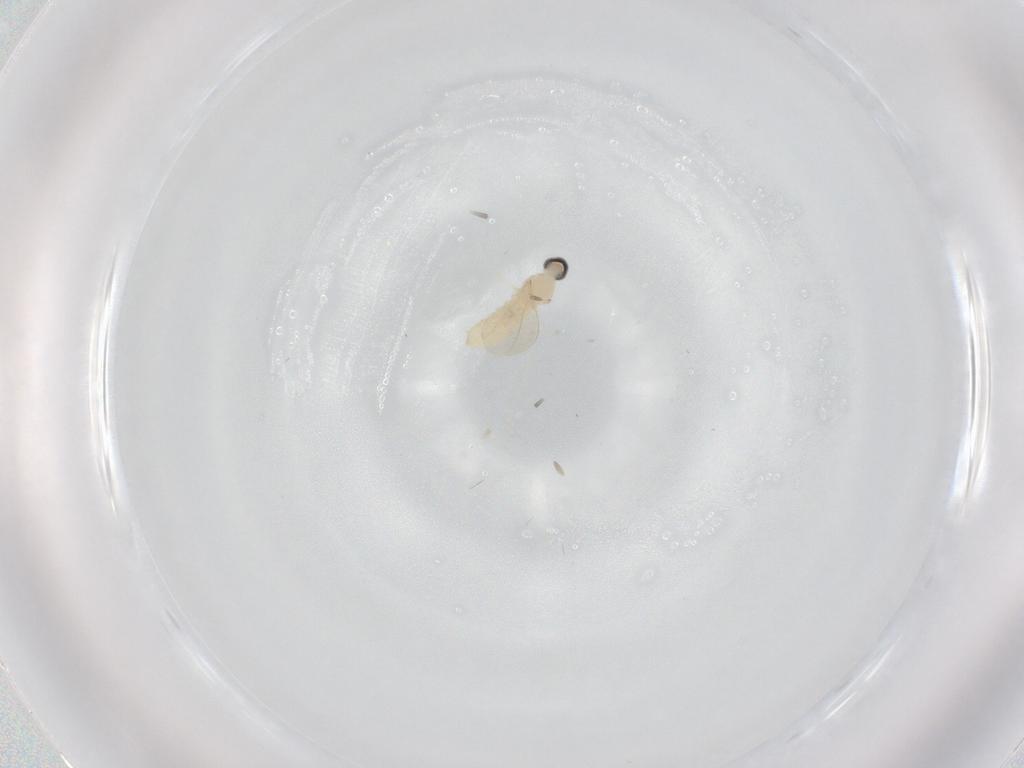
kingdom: Animalia
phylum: Arthropoda
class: Insecta
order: Diptera
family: Cecidomyiidae
